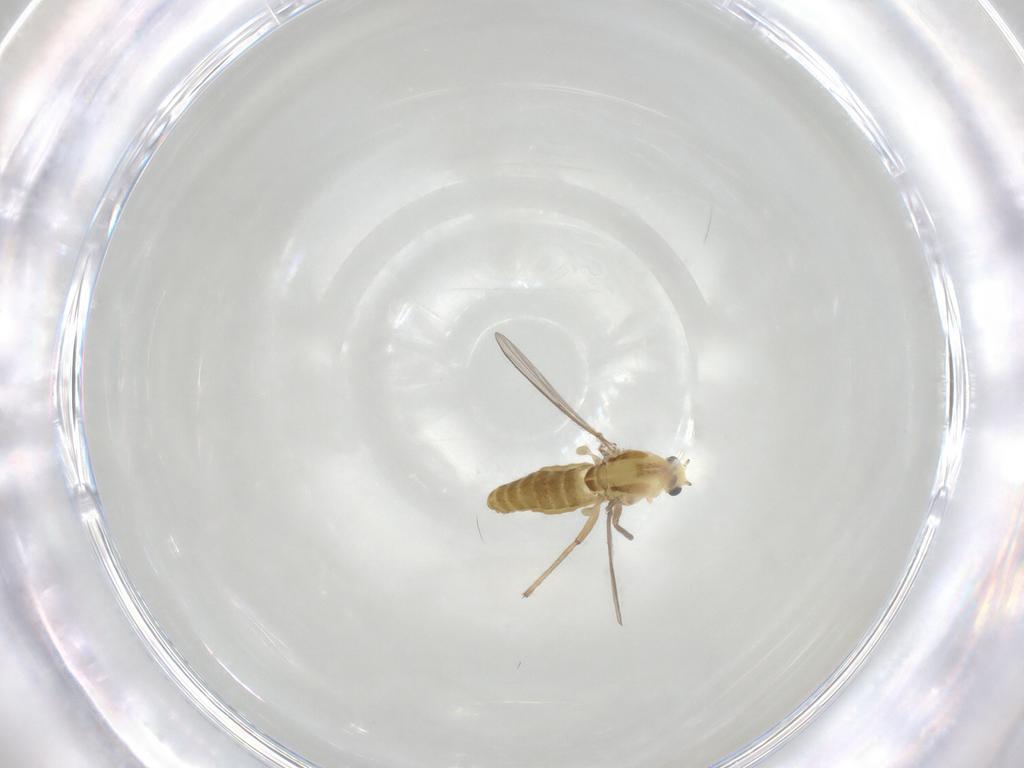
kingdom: Animalia
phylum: Arthropoda
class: Insecta
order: Diptera
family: Chironomidae
